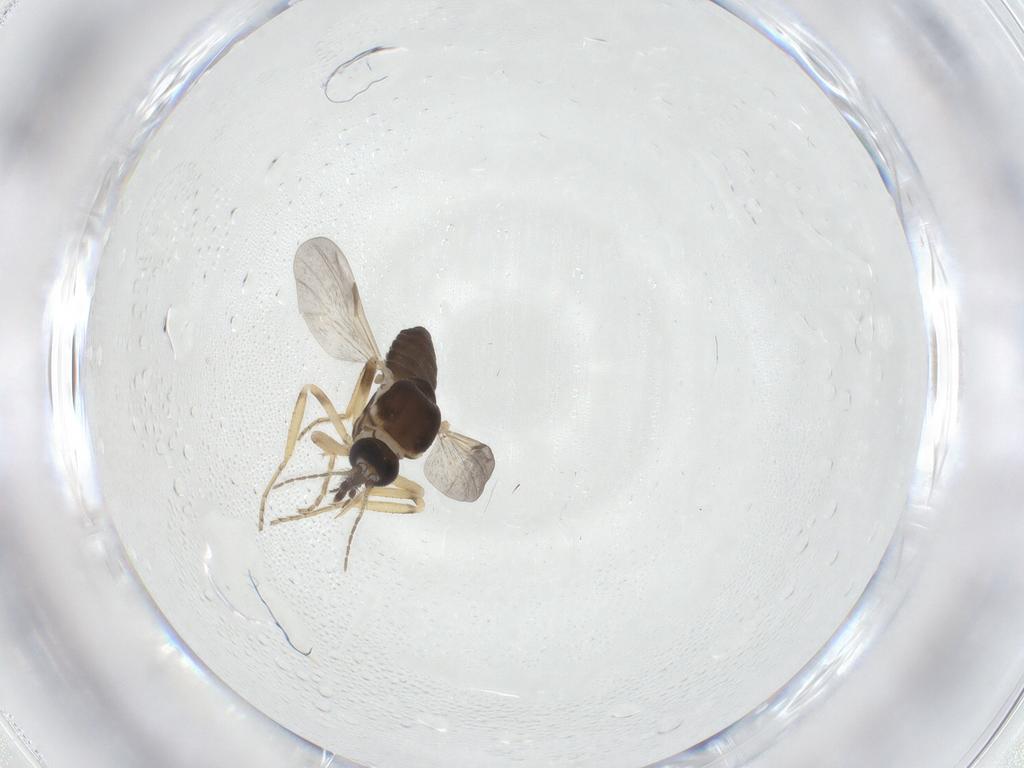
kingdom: Animalia
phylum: Arthropoda
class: Insecta
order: Diptera
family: Ceratopogonidae
